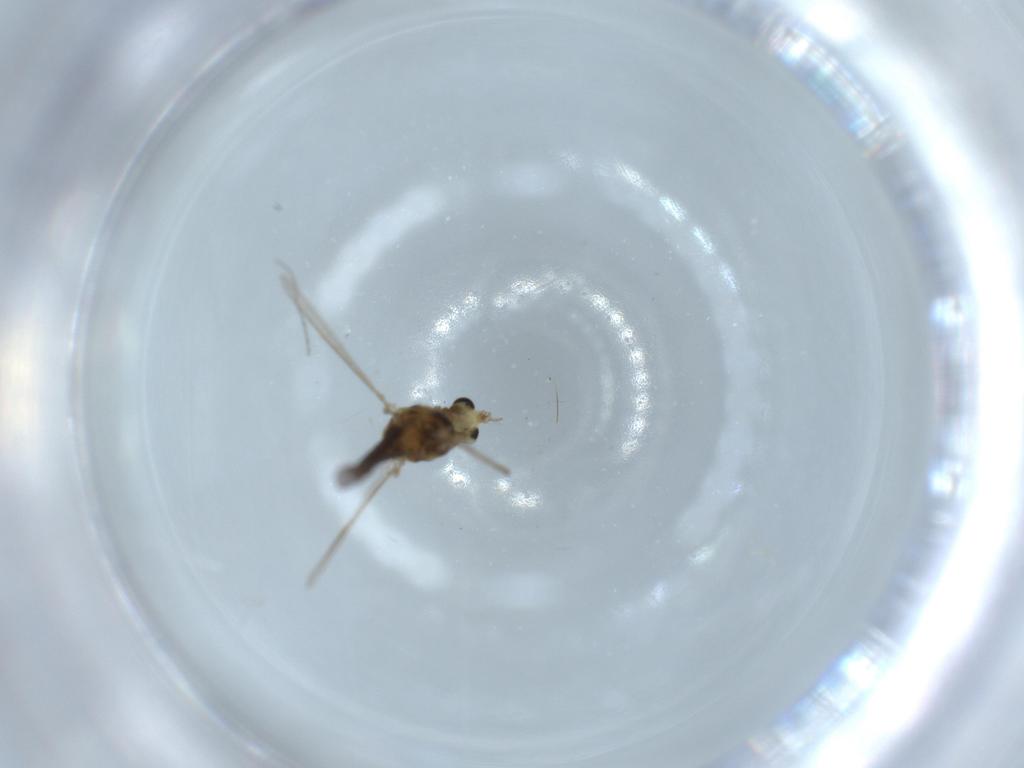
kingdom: Animalia
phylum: Arthropoda
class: Insecta
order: Diptera
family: Chironomidae
